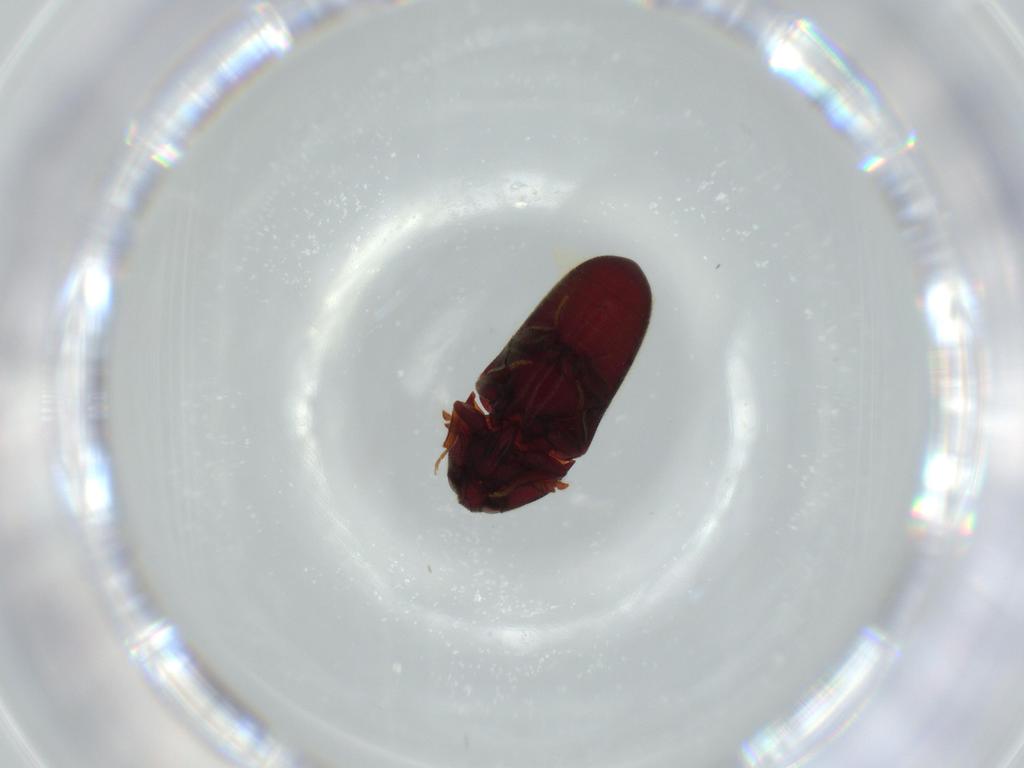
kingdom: Animalia
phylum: Arthropoda
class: Insecta
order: Coleoptera
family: Throscidae
